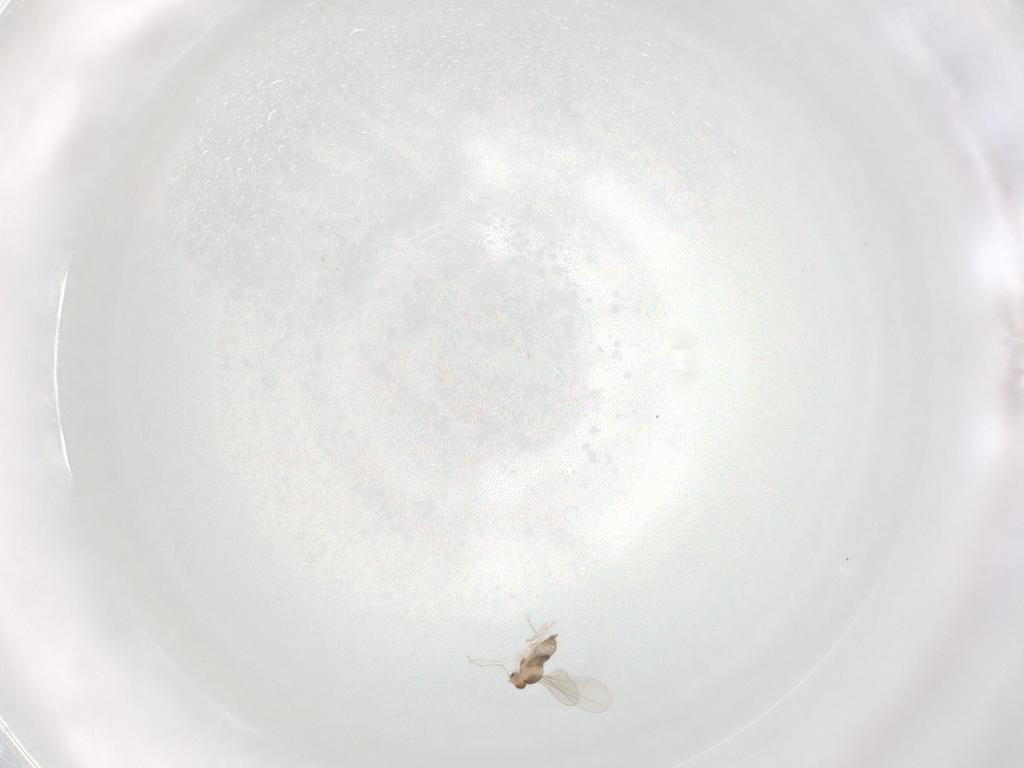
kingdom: Animalia
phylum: Arthropoda
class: Insecta
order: Diptera
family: Cecidomyiidae
